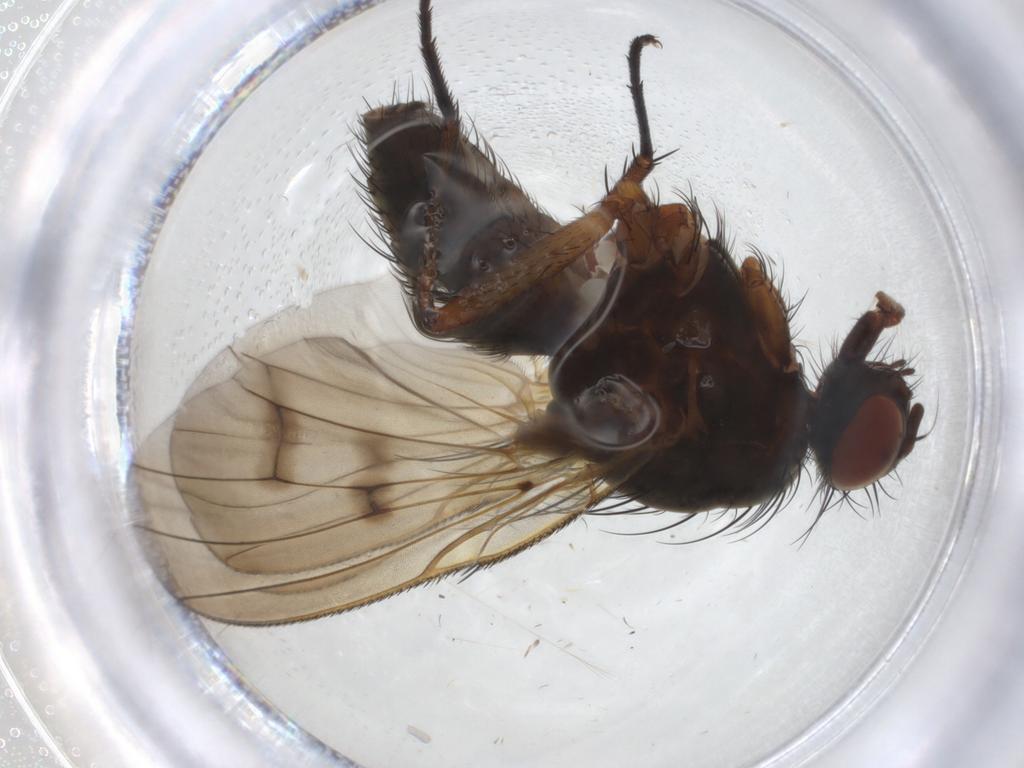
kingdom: Animalia
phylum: Arthropoda
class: Insecta
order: Diptera
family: Anthomyiidae
